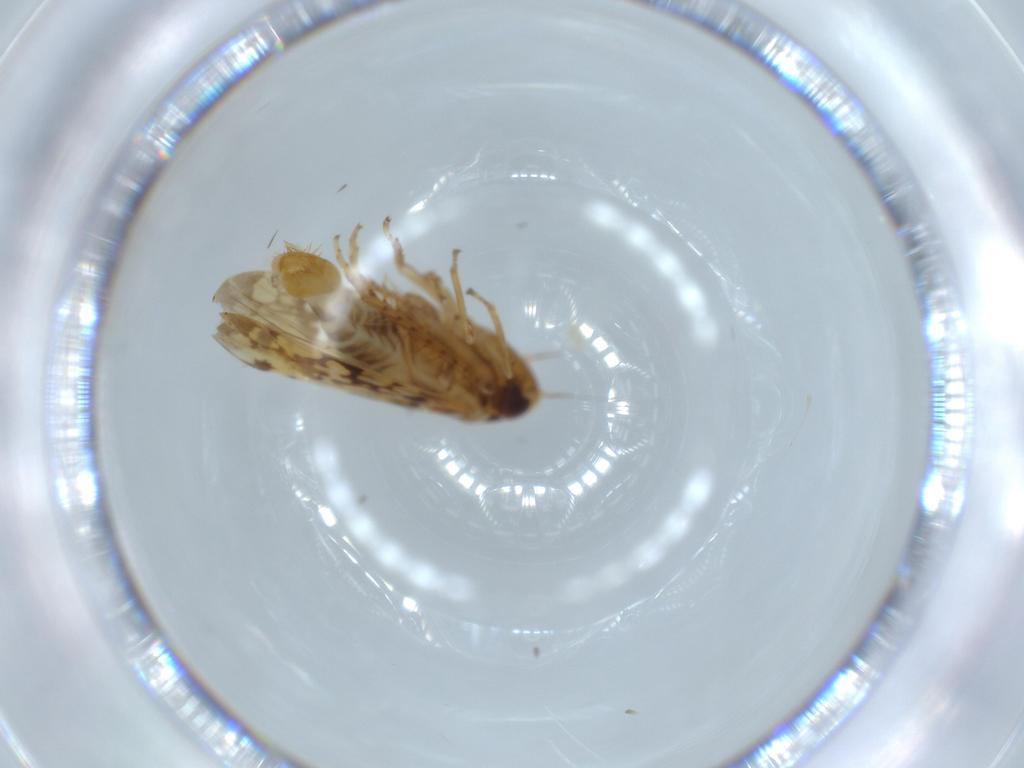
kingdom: Animalia
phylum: Arthropoda
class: Insecta
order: Hemiptera
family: Cicadellidae
